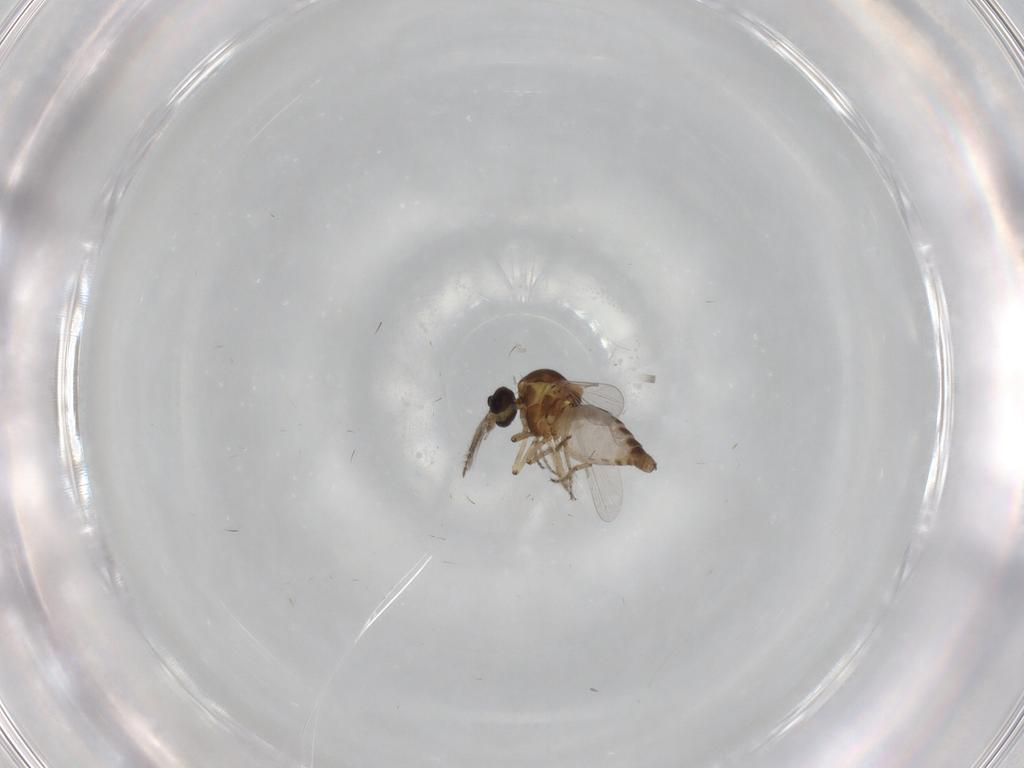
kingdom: Animalia
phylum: Arthropoda
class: Insecta
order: Diptera
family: Ceratopogonidae
